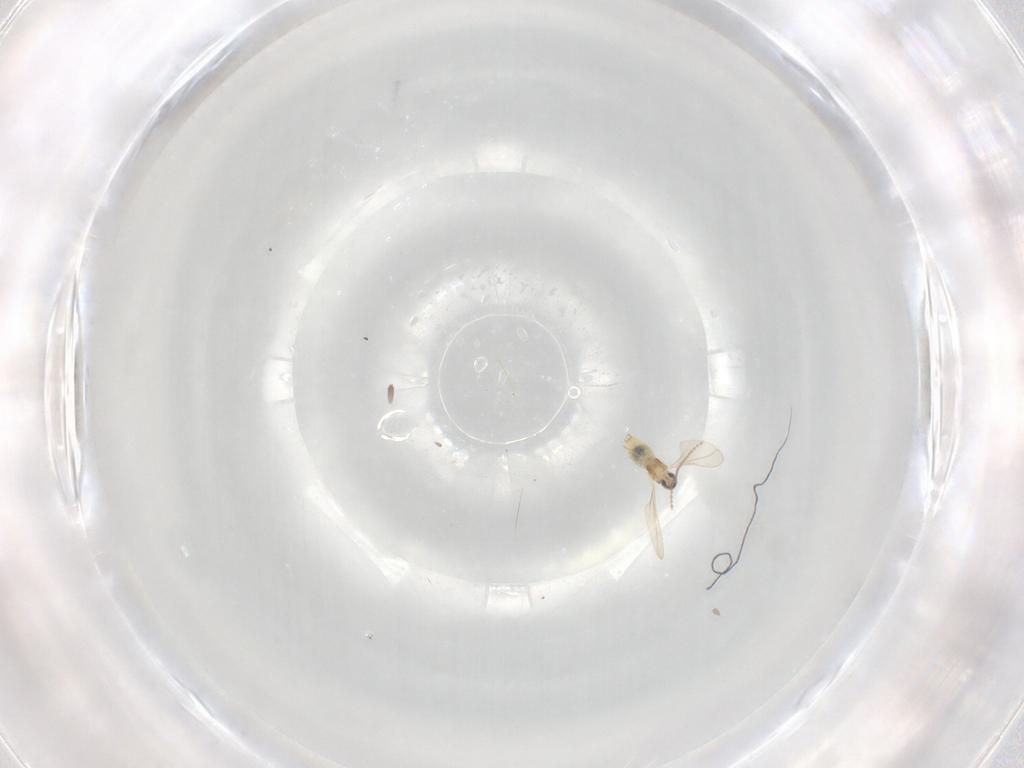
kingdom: Animalia
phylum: Arthropoda
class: Insecta
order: Diptera
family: Cecidomyiidae
